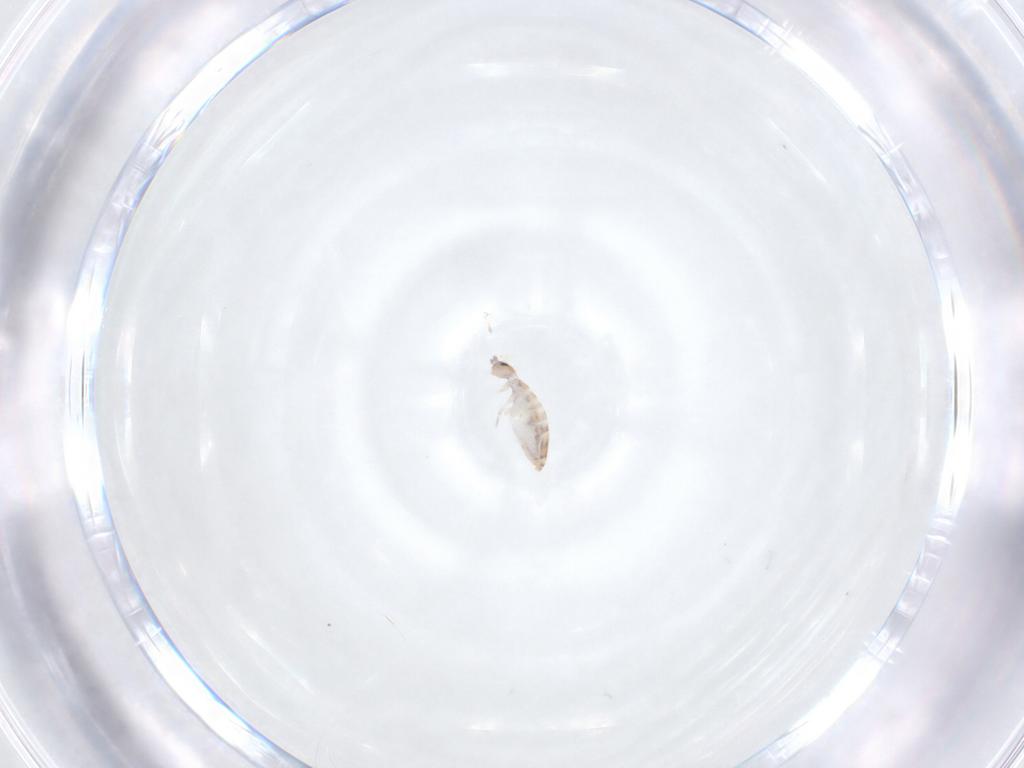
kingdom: Animalia
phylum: Arthropoda
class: Collembola
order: Entomobryomorpha
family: Entomobryidae
